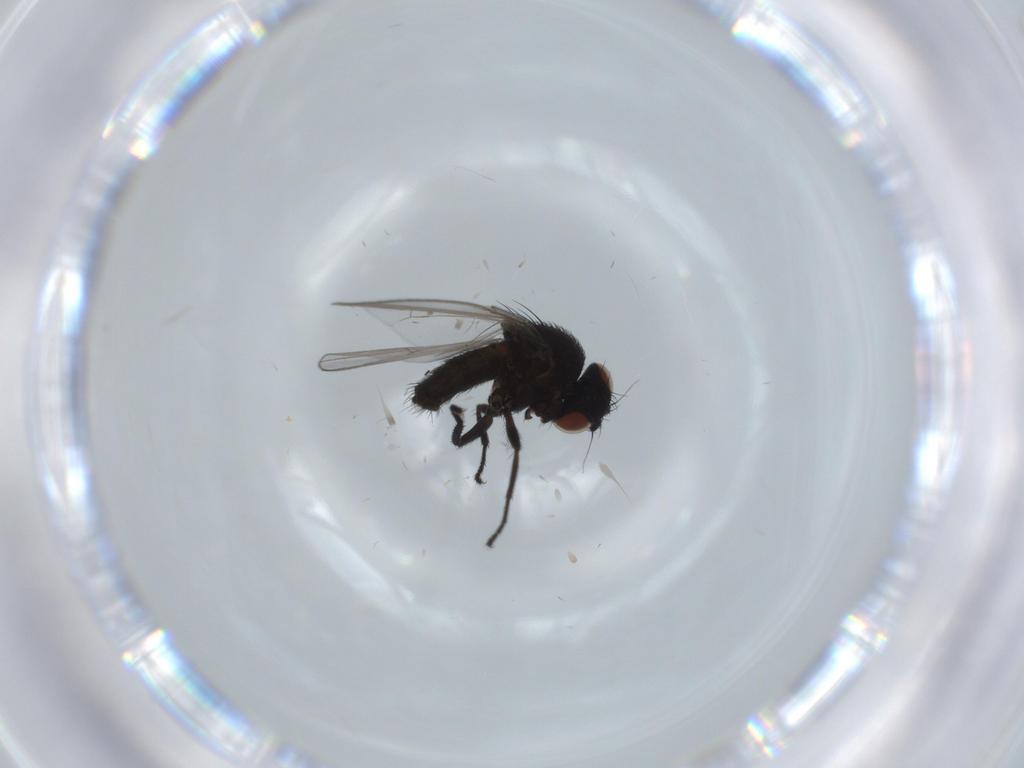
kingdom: Animalia
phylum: Arthropoda
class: Insecta
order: Diptera
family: Milichiidae
